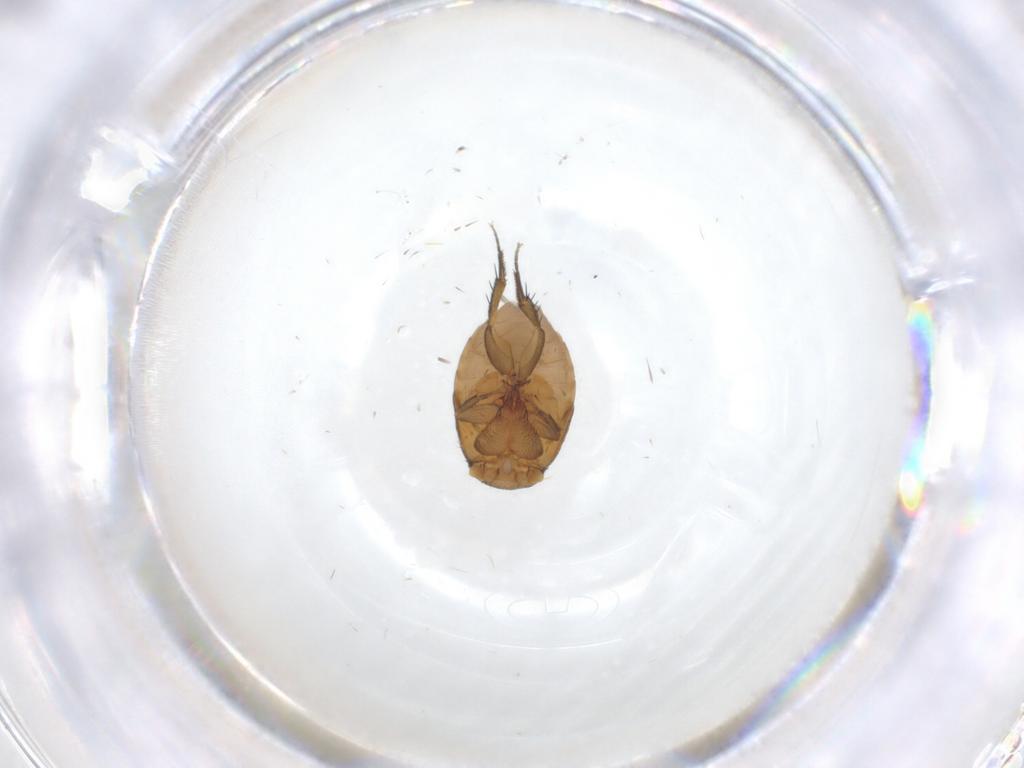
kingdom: Animalia
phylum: Arthropoda
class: Insecta
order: Diptera
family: Phoridae
